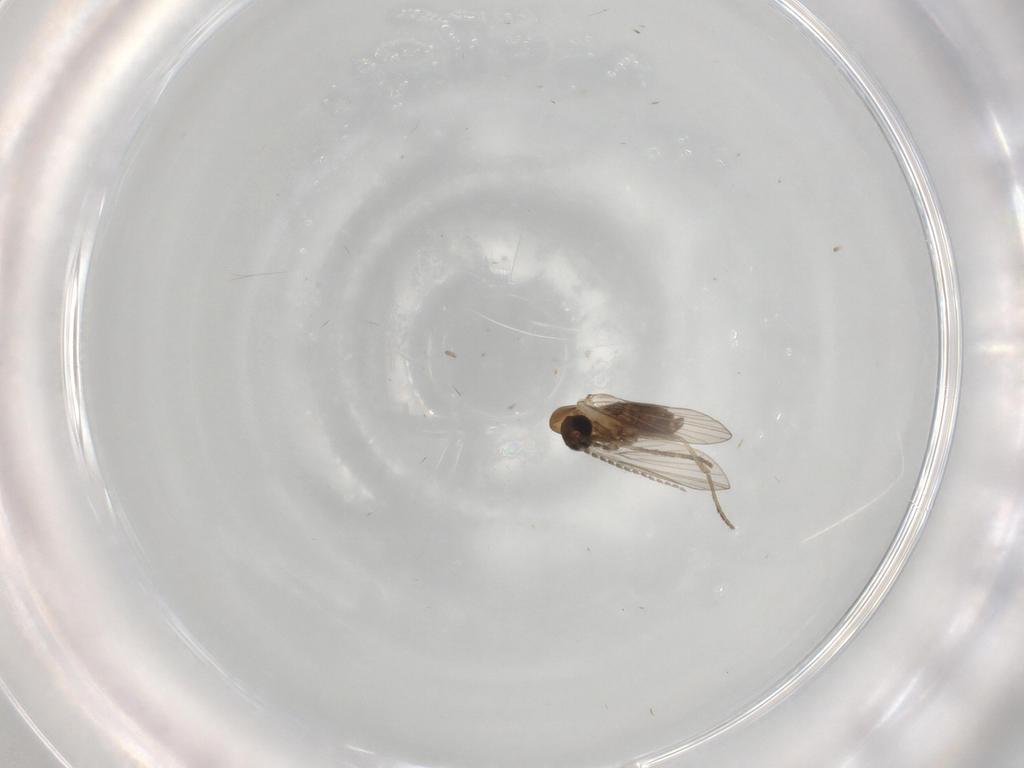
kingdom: Animalia
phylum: Arthropoda
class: Insecta
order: Diptera
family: Psychodidae
